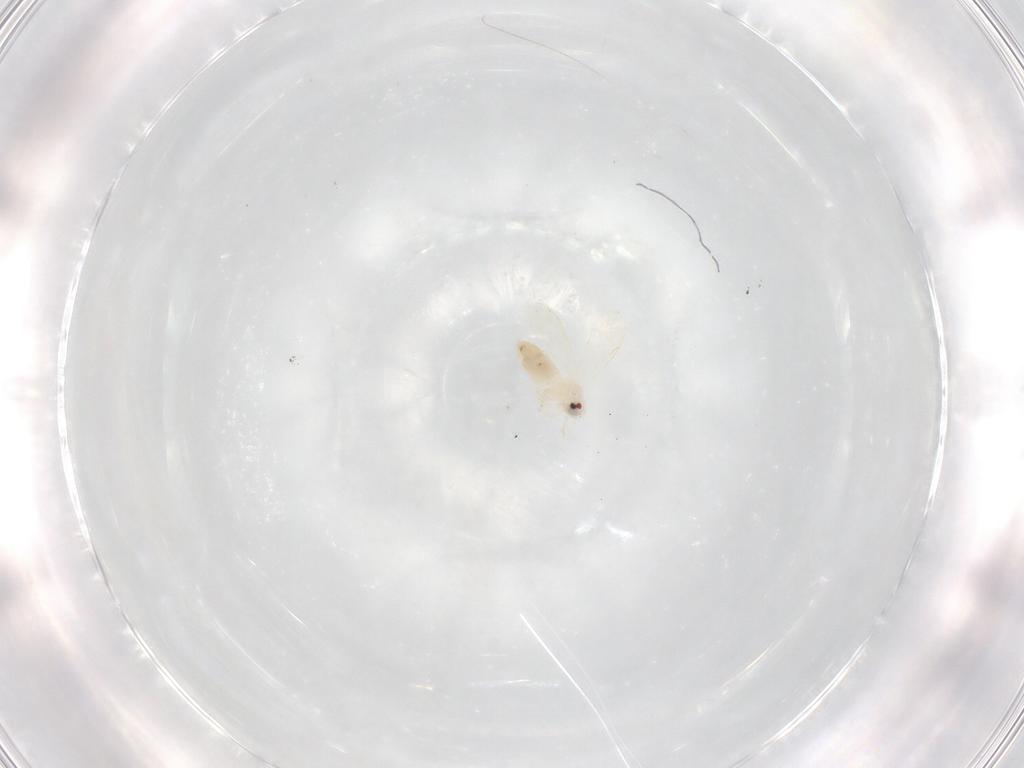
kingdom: Animalia
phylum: Arthropoda
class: Insecta
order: Hemiptera
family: Aleyrodidae
